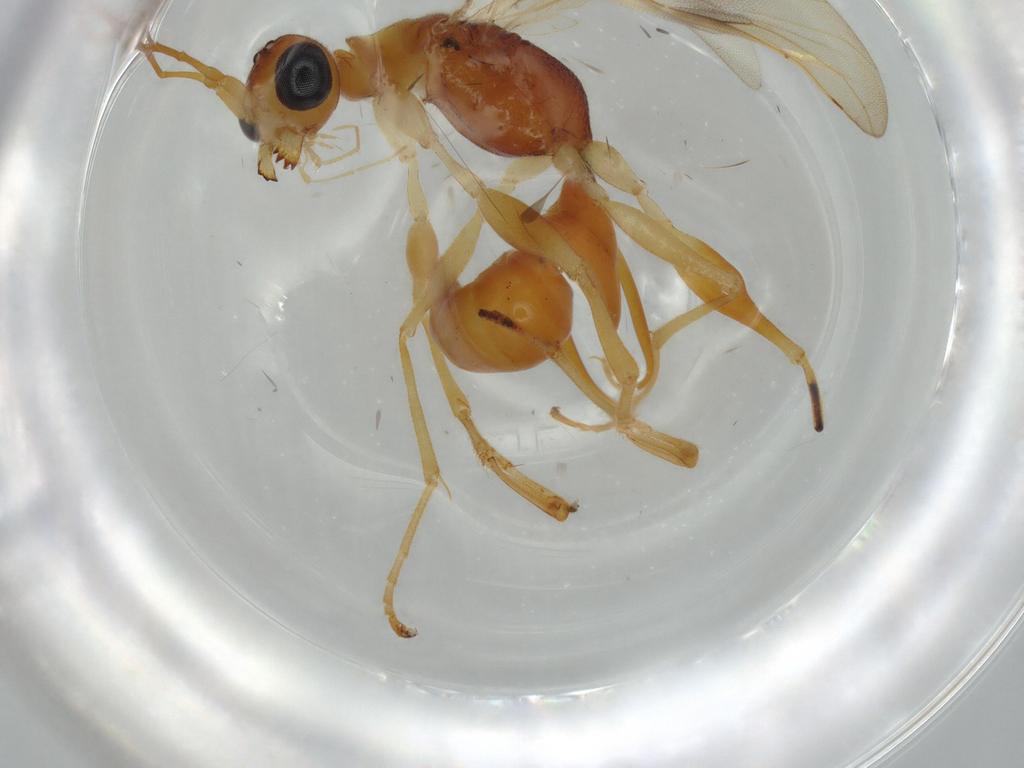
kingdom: Animalia
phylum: Arthropoda
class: Insecta
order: Hymenoptera
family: Dryinidae
